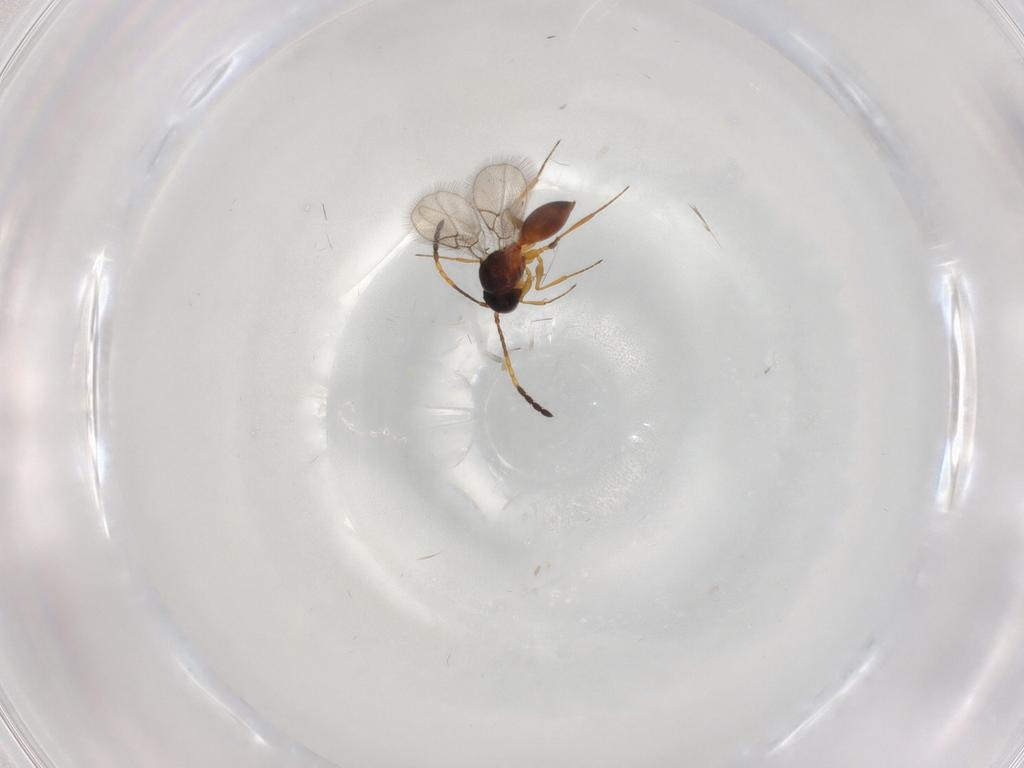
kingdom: Animalia
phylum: Arthropoda
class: Insecta
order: Hymenoptera
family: Figitidae
